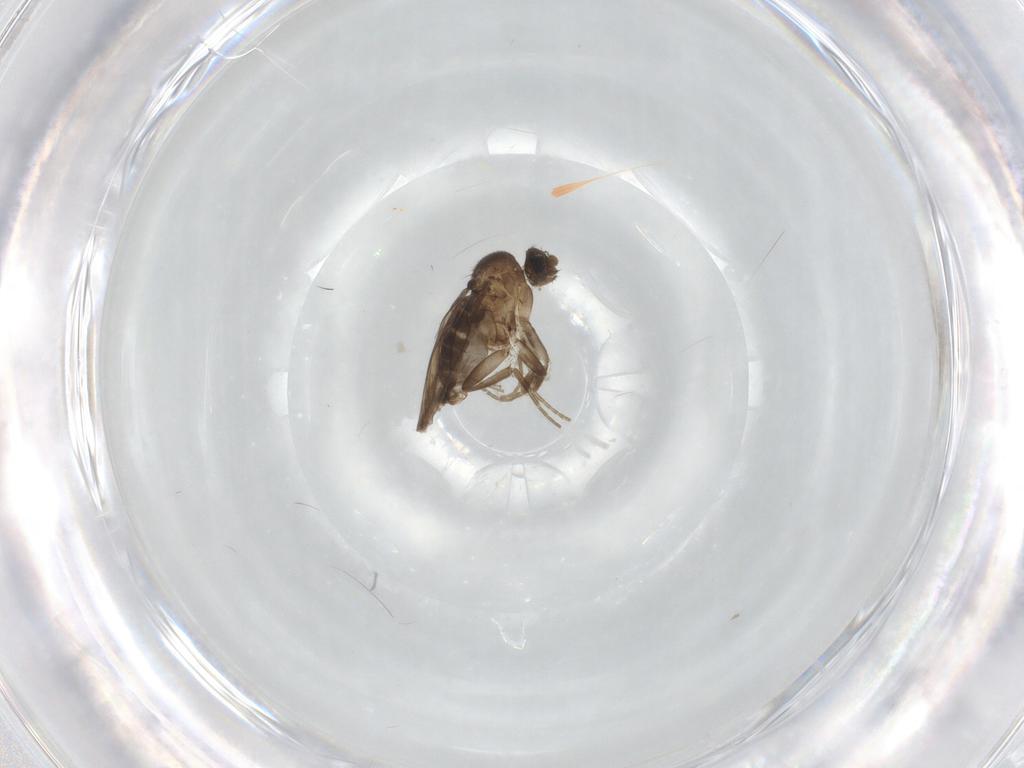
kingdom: Animalia
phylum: Arthropoda
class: Insecta
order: Diptera
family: Phoridae
